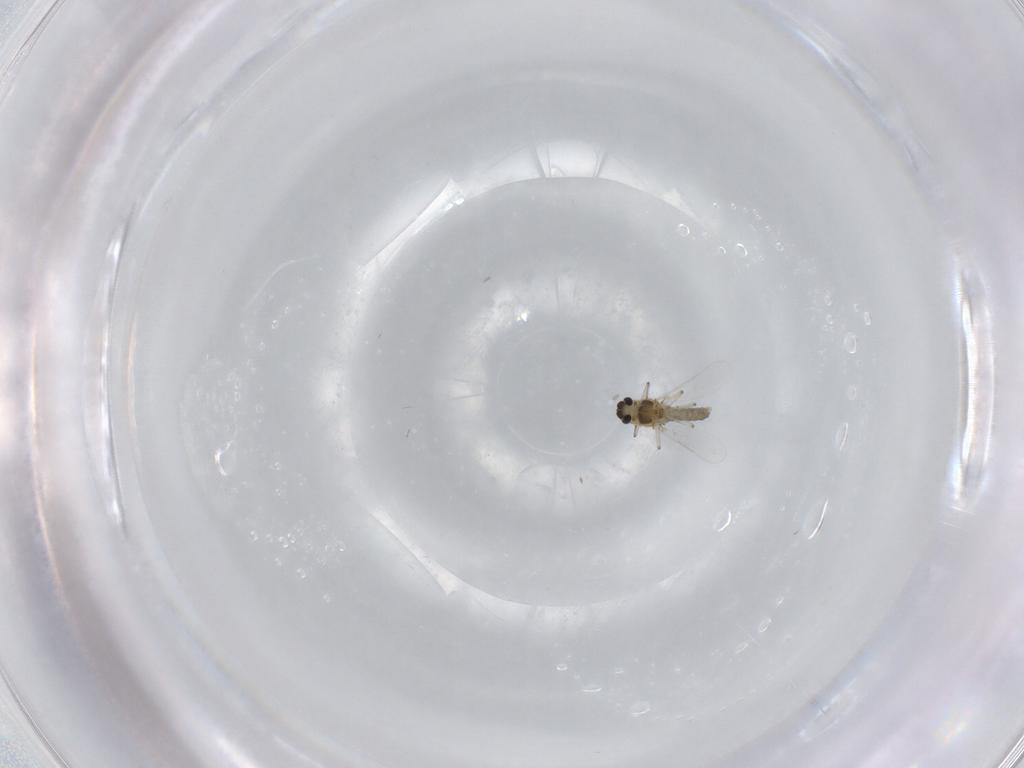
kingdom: Animalia
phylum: Arthropoda
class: Insecta
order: Diptera
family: Chironomidae
